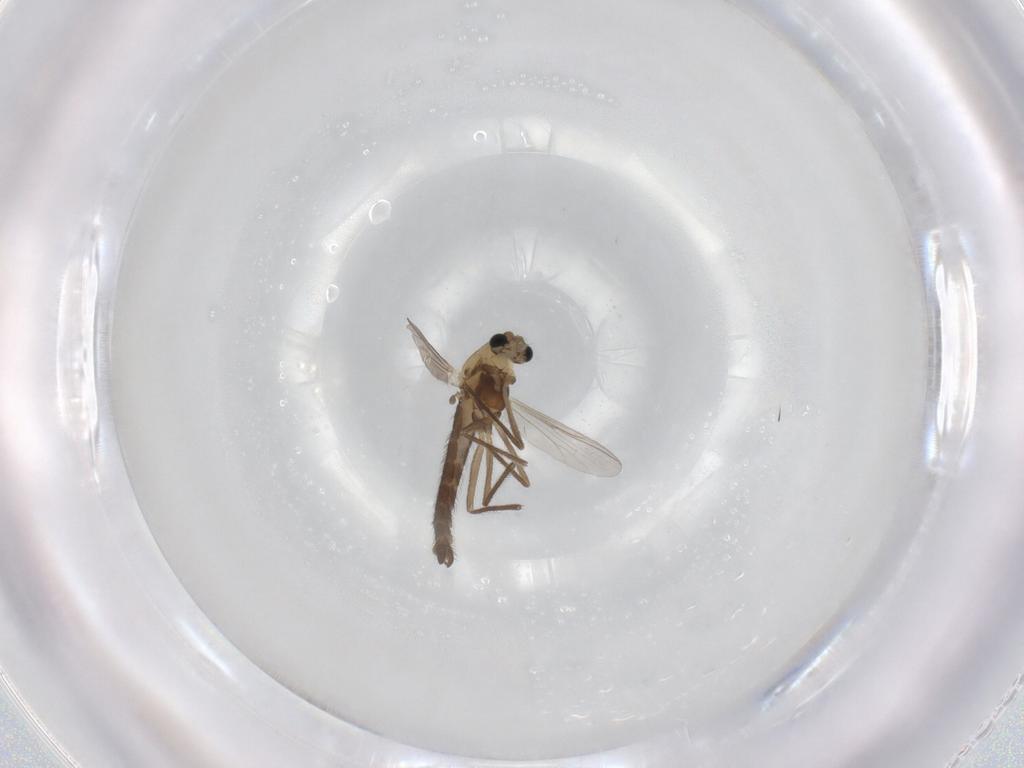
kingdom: Animalia
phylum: Arthropoda
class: Insecta
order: Diptera
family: Chironomidae
